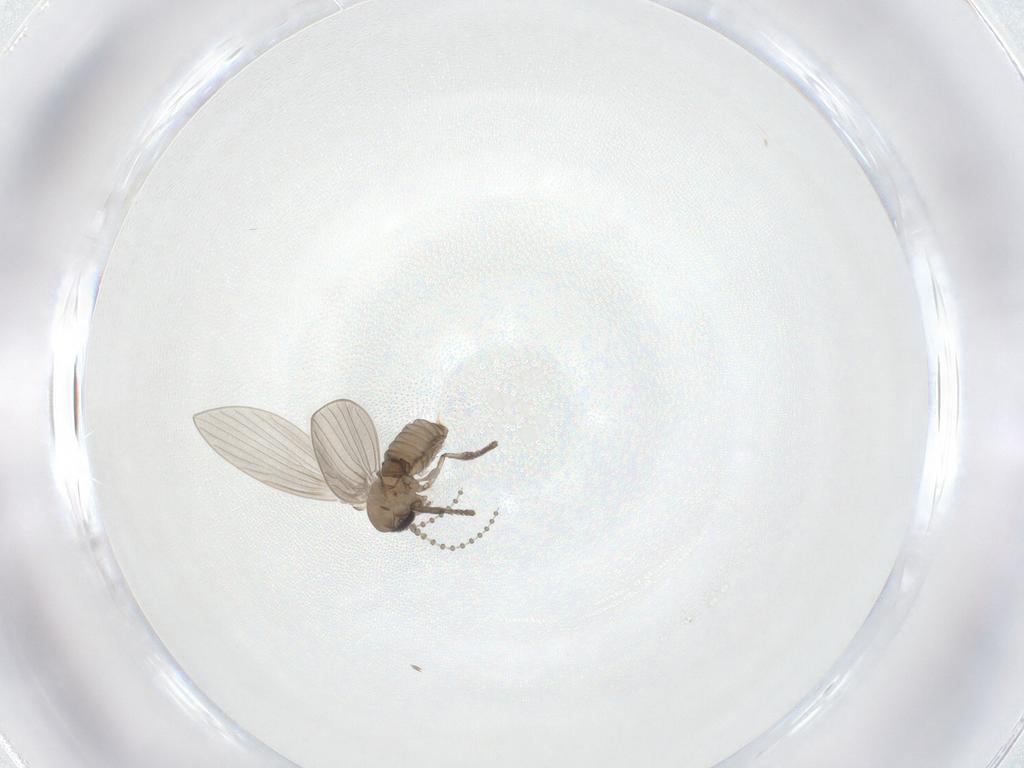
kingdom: Animalia
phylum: Arthropoda
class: Insecta
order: Diptera
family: Psychodidae
